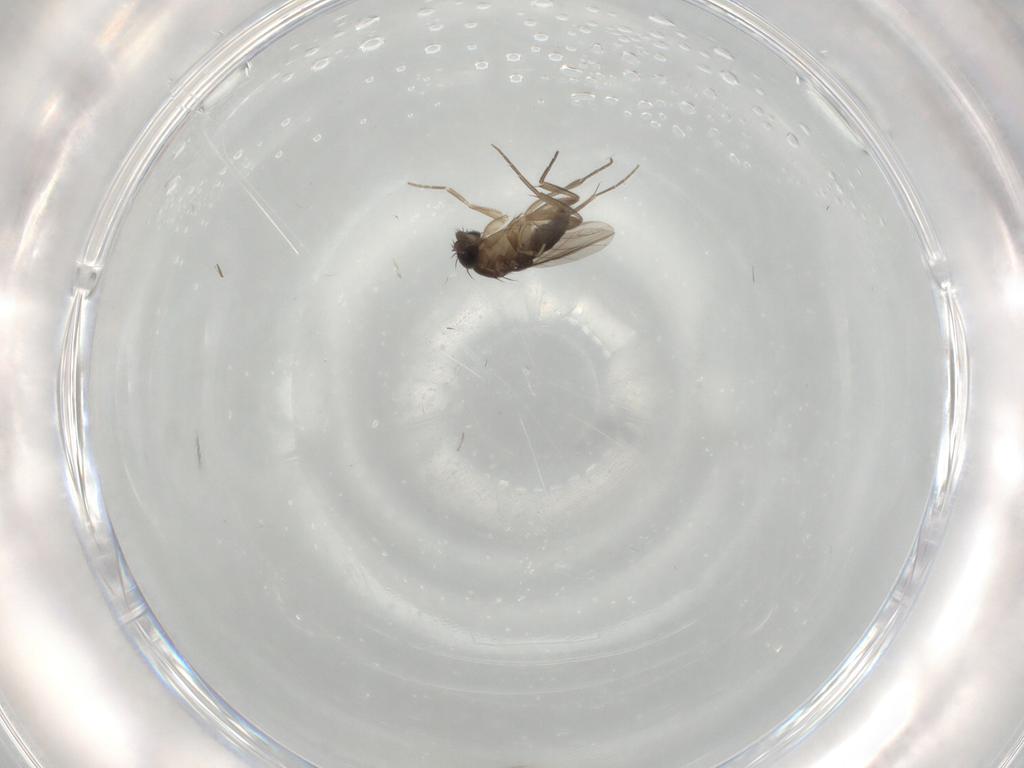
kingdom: Animalia
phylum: Arthropoda
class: Insecta
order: Diptera
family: Phoridae
